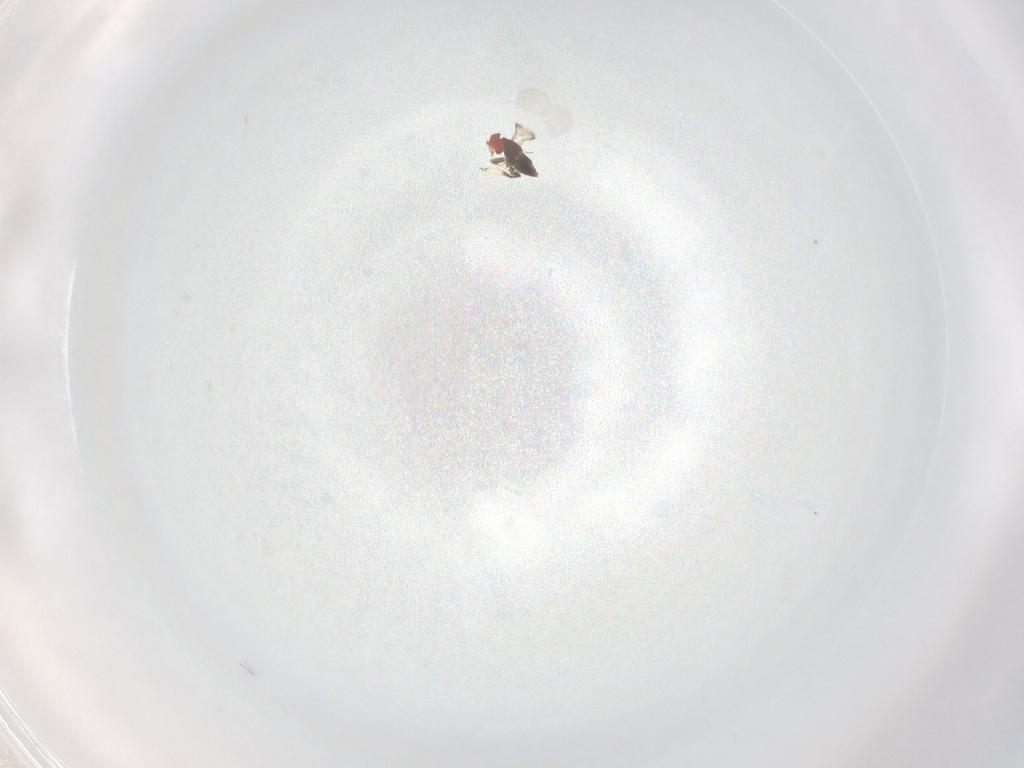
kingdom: Animalia
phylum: Arthropoda
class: Insecta
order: Hymenoptera
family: Trichogrammatidae
